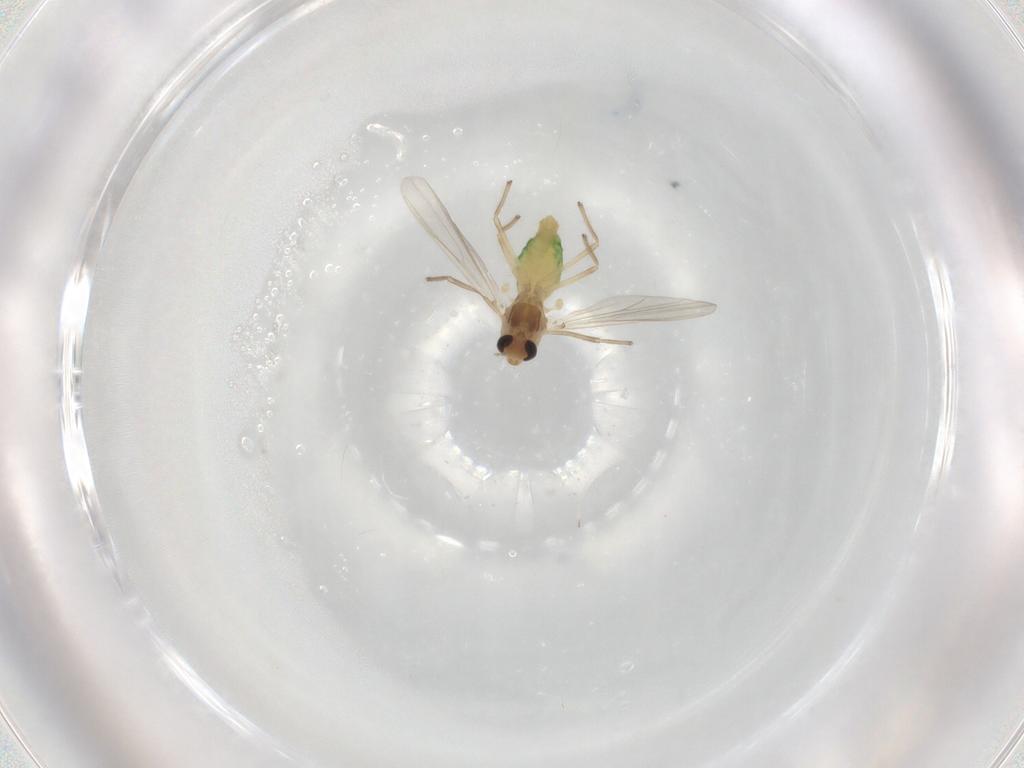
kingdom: Animalia
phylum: Arthropoda
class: Insecta
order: Diptera
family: Chironomidae
